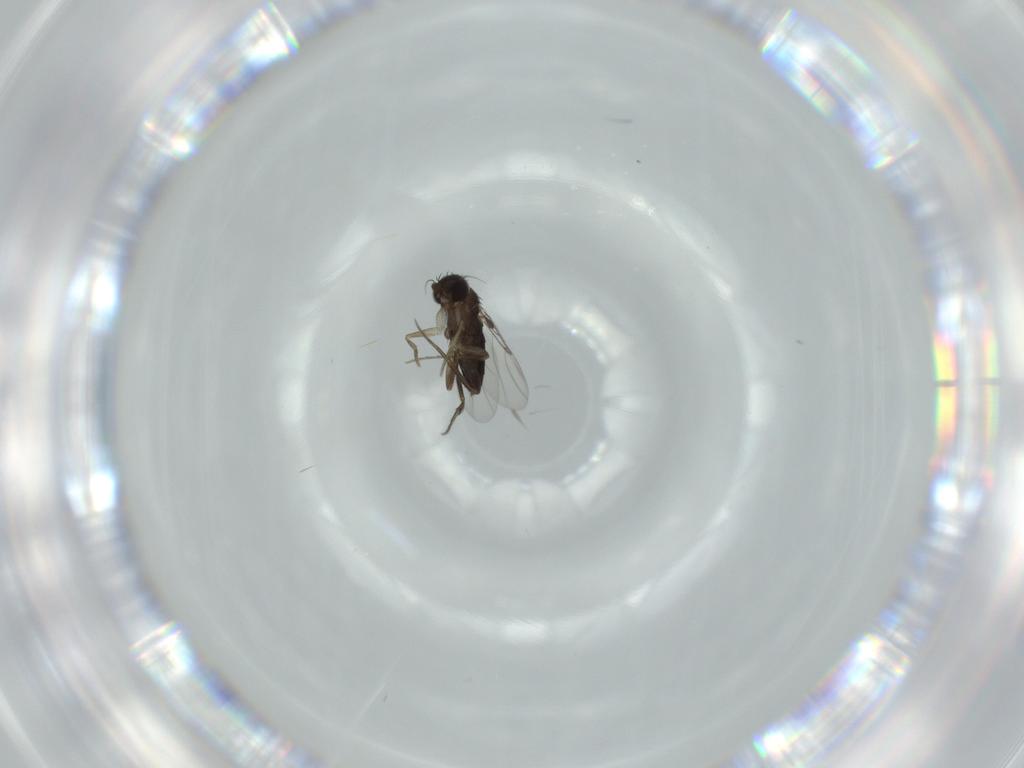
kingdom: Animalia
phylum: Arthropoda
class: Insecta
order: Diptera
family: Phoridae
